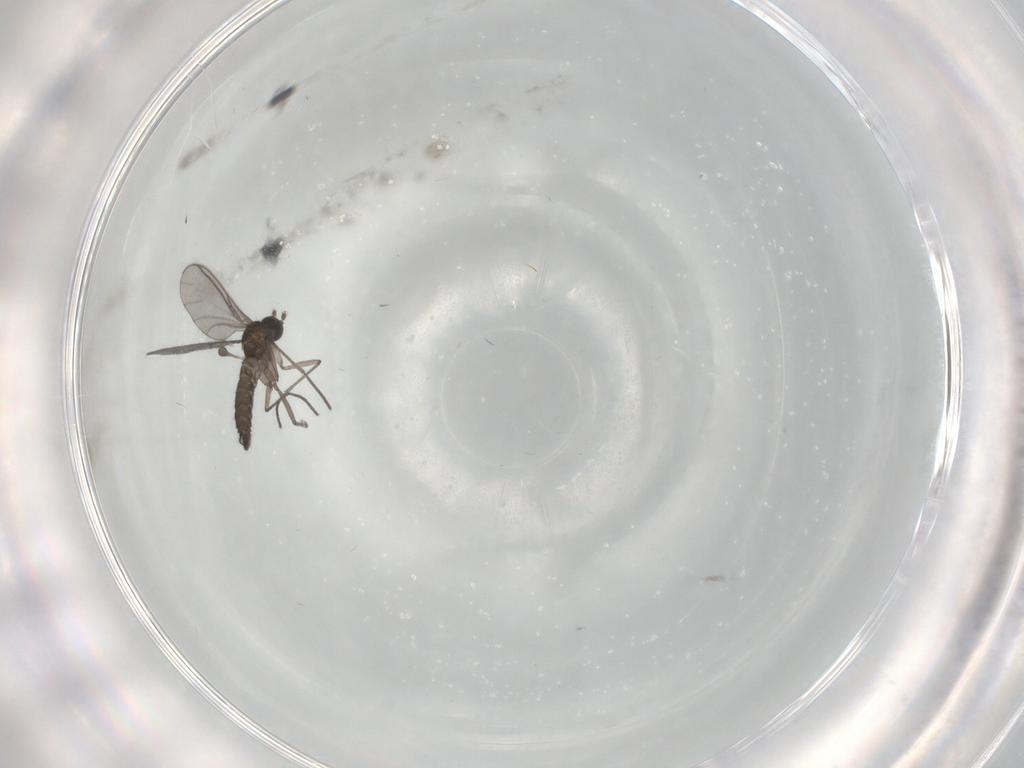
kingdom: Animalia
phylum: Arthropoda
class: Insecta
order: Diptera
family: Sciaridae
